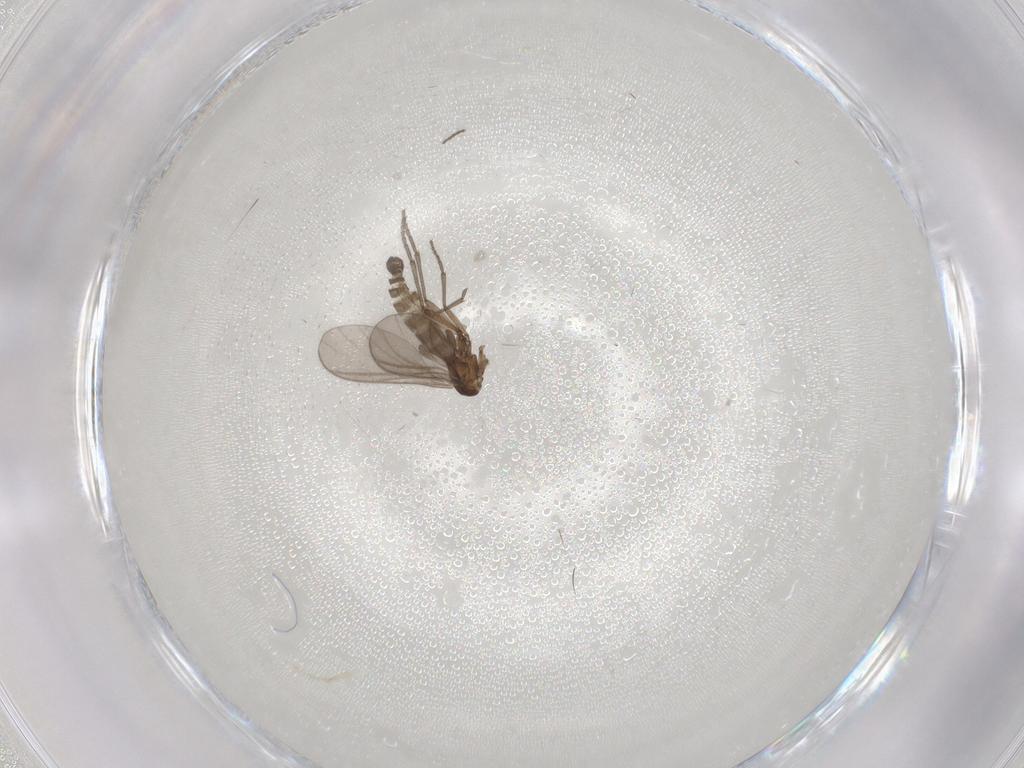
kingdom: Animalia
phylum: Arthropoda
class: Insecta
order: Diptera
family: Sciaridae
